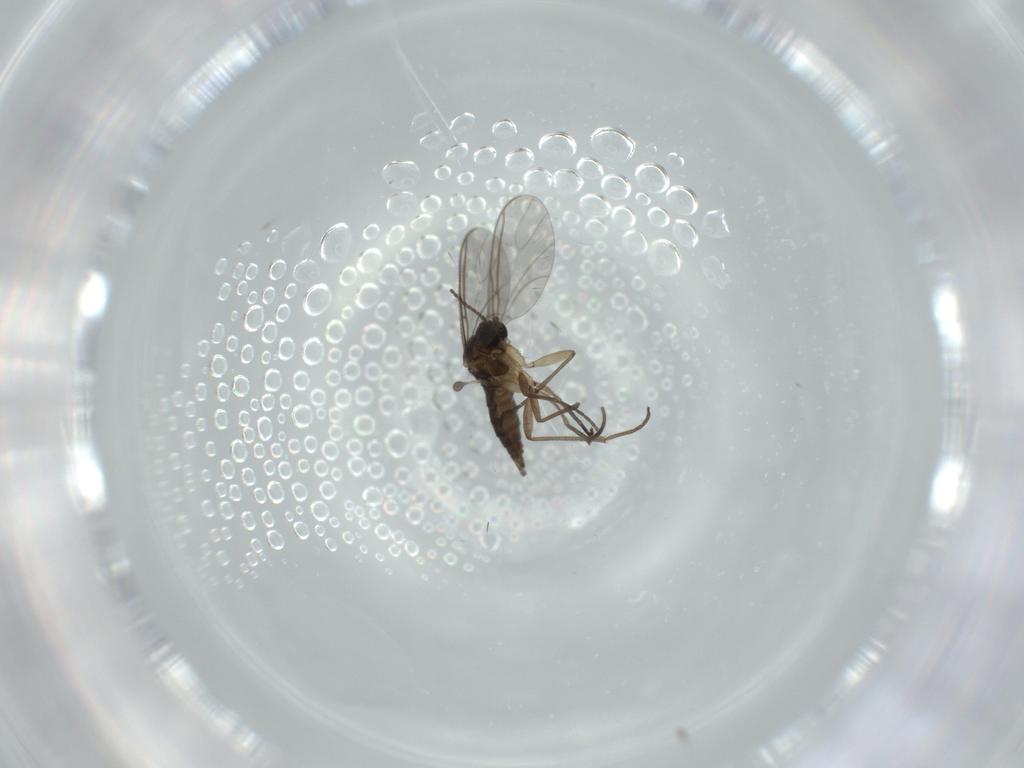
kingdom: Animalia
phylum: Arthropoda
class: Insecta
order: Diptera
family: Sciaridae
